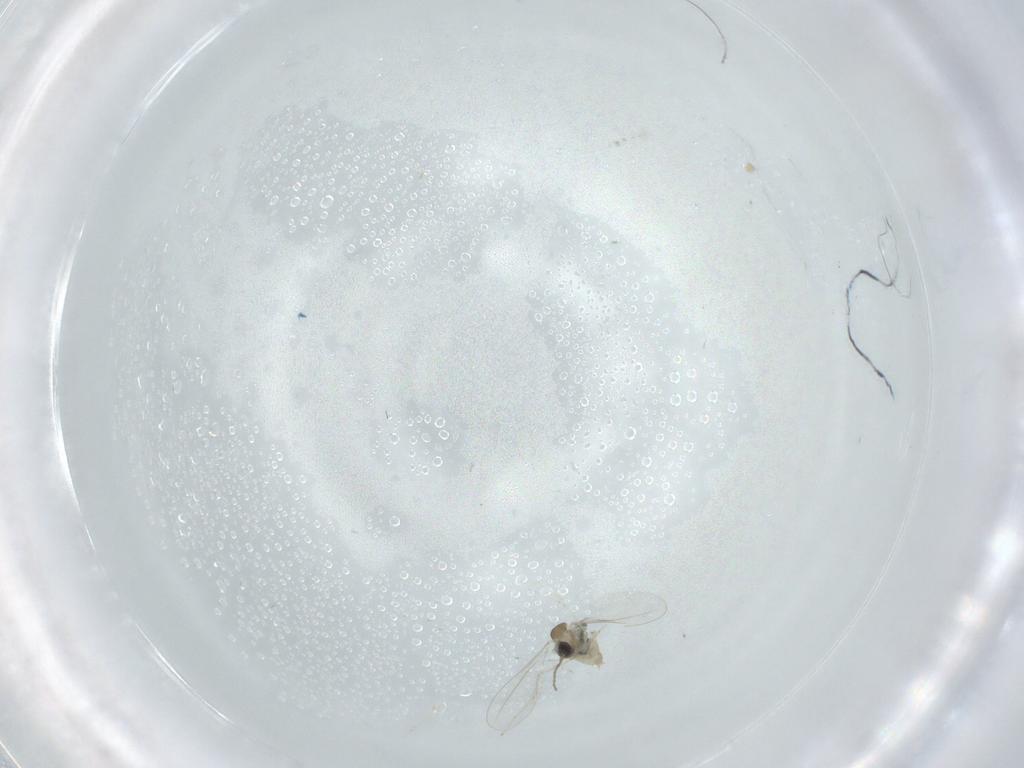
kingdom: Animalia
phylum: Arthropoda
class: Insecta
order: Diptera
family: Cecidomyiidae
